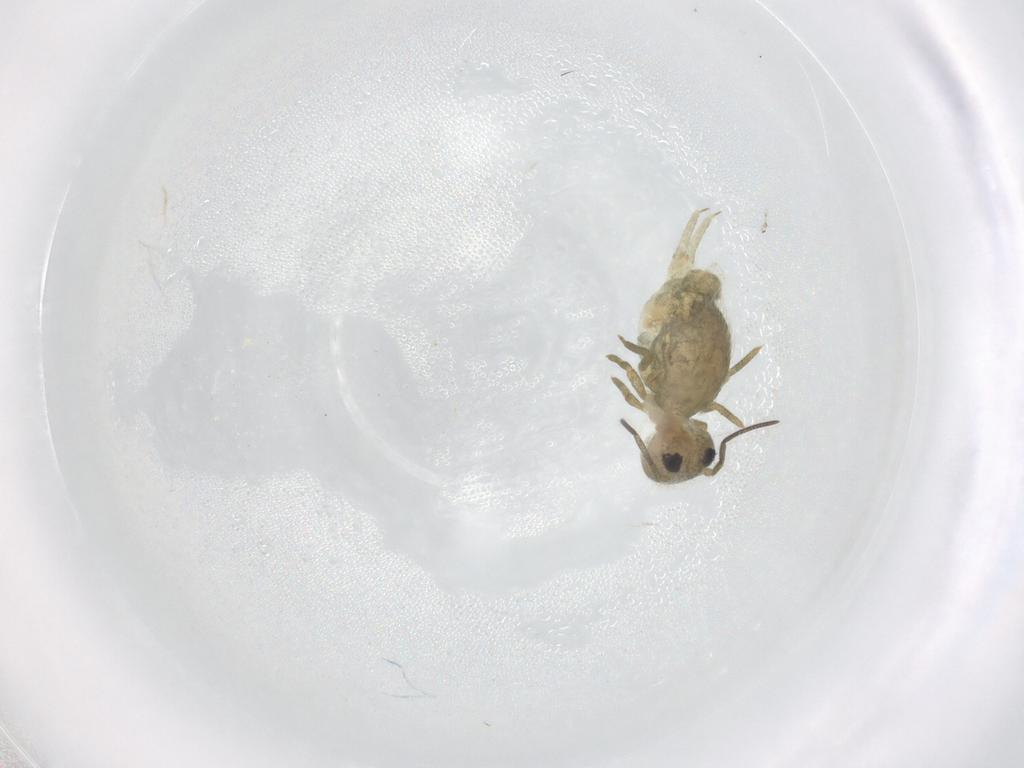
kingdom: Animalia
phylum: Arthropoda
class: Collembola
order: Symphypleona
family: Sminthuridae
